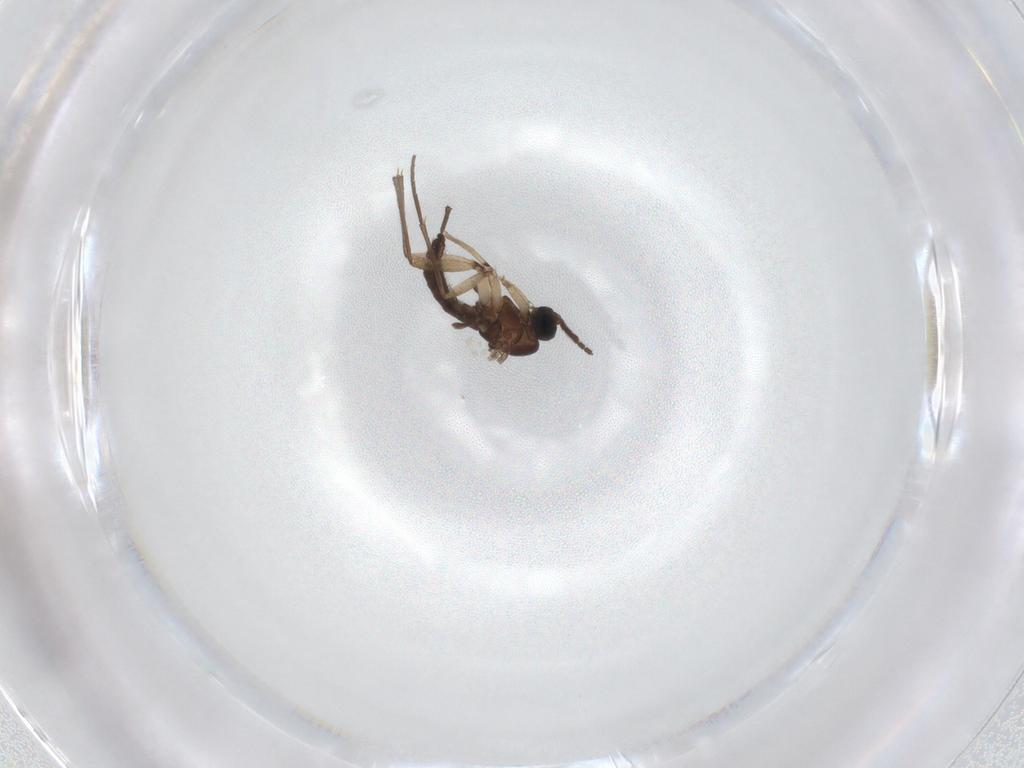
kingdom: Animalia
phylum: Arthropoda
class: Insecta
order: Diptera
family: Sciaridae
